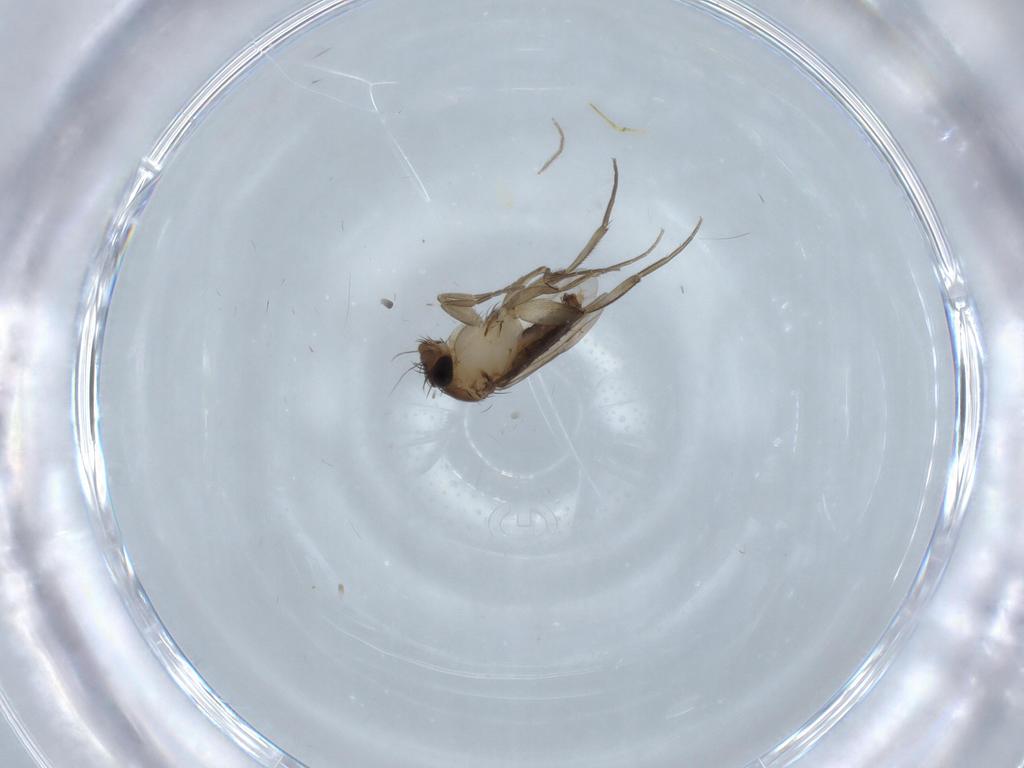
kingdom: Animalia
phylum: Arthropoda
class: Insecta
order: Diptera
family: Phoridae
